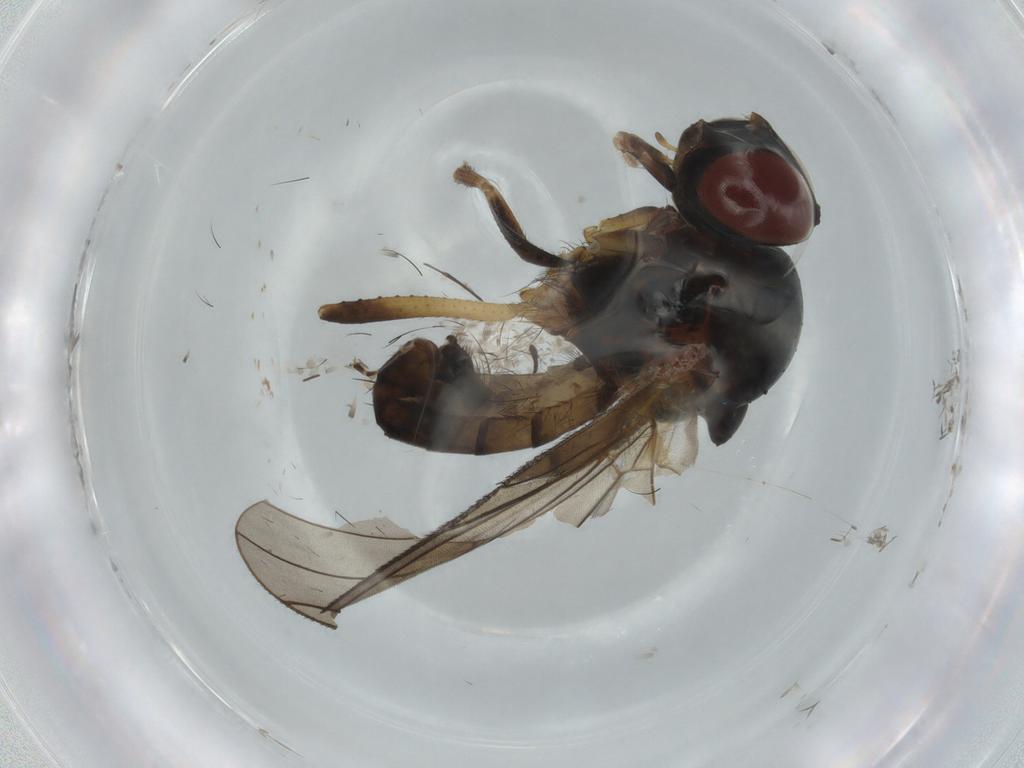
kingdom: Animalia
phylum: Arthropoda
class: Insecta
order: Diptera
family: Anthomyiidae
